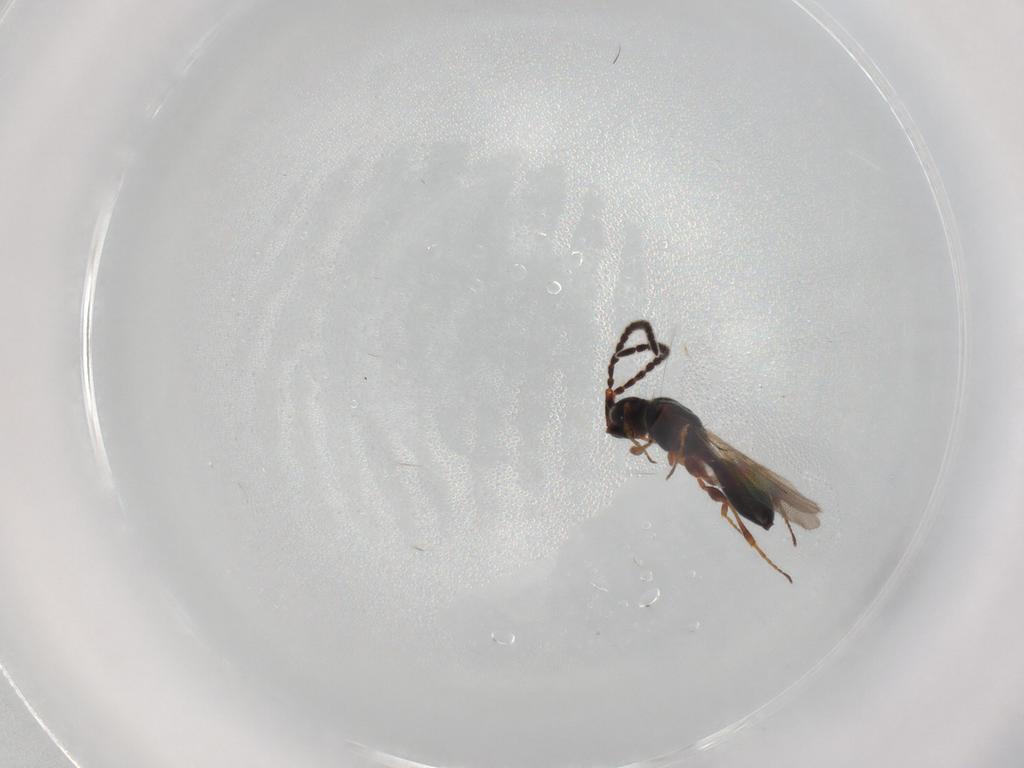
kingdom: Animalia
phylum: Arthropoda
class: Insecta
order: Hymenoptera
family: Diapriidae
